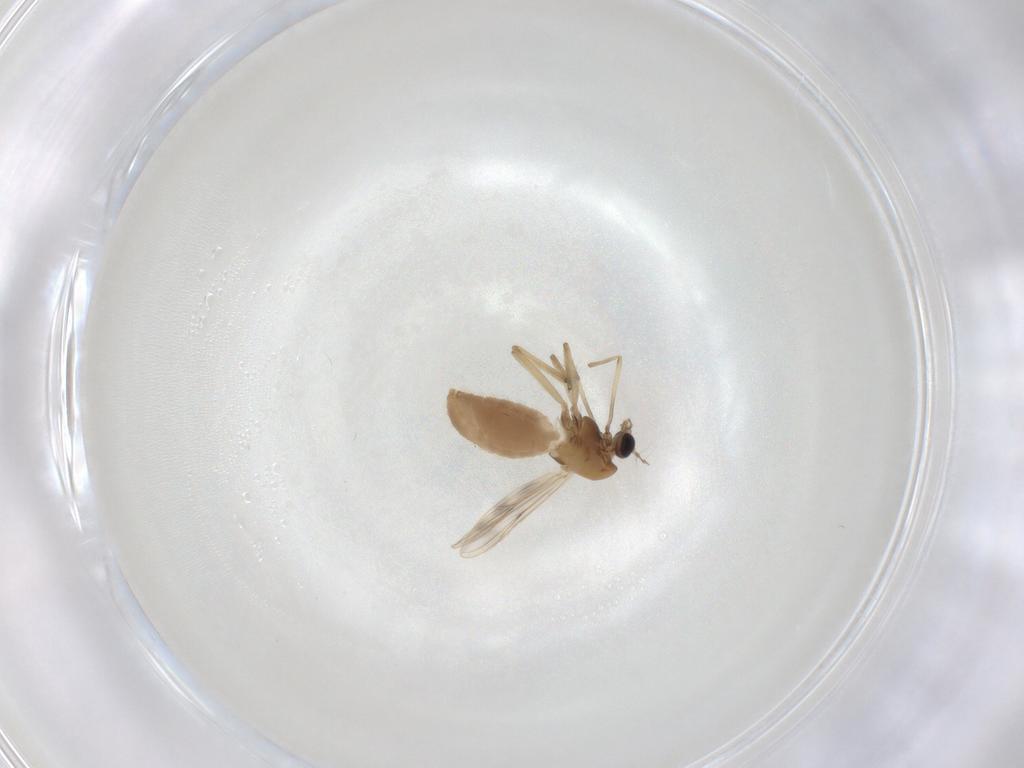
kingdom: Animalia
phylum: Arthropoda
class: Insecta
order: Diptera
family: Chironomidae
